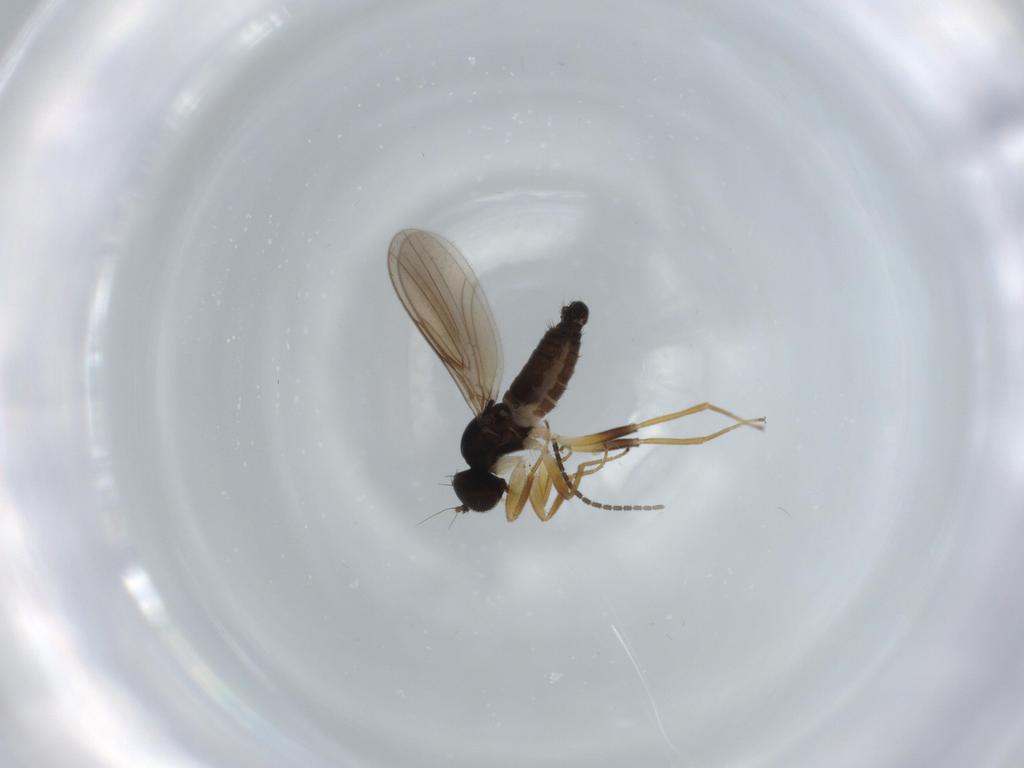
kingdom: Animalia
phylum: Arthropoda
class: Insecta
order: Diptera
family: Hybotidae
